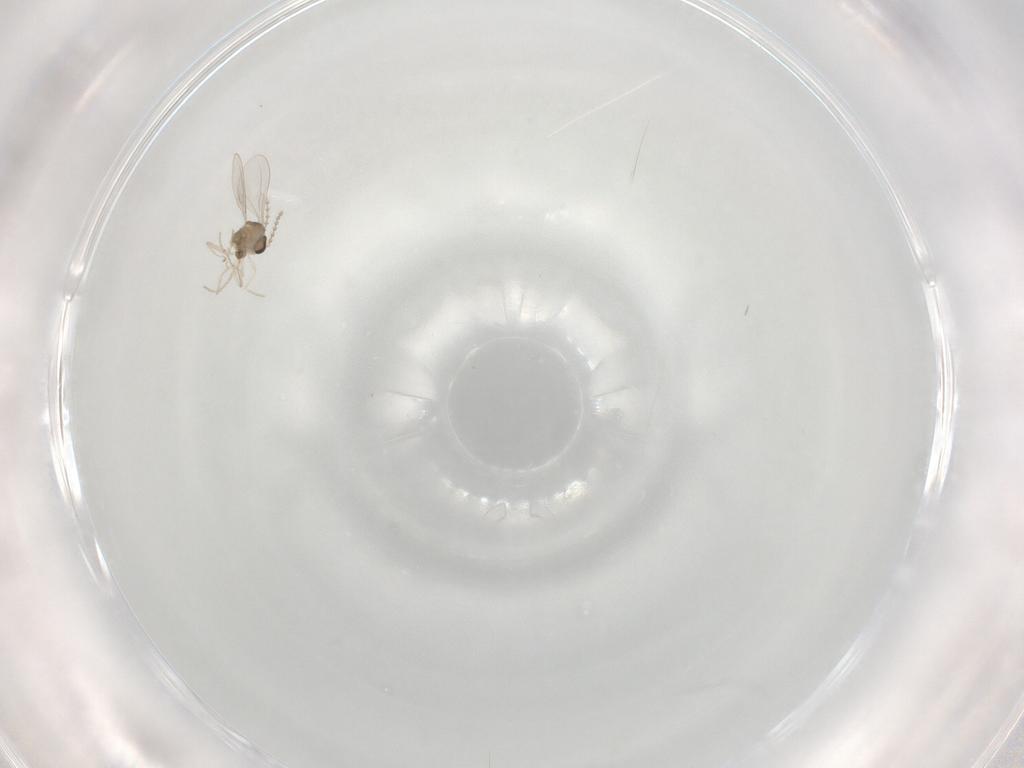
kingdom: Animalia
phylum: Arthropoda
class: Insecta
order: Diptera
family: Cecidomyiidae
